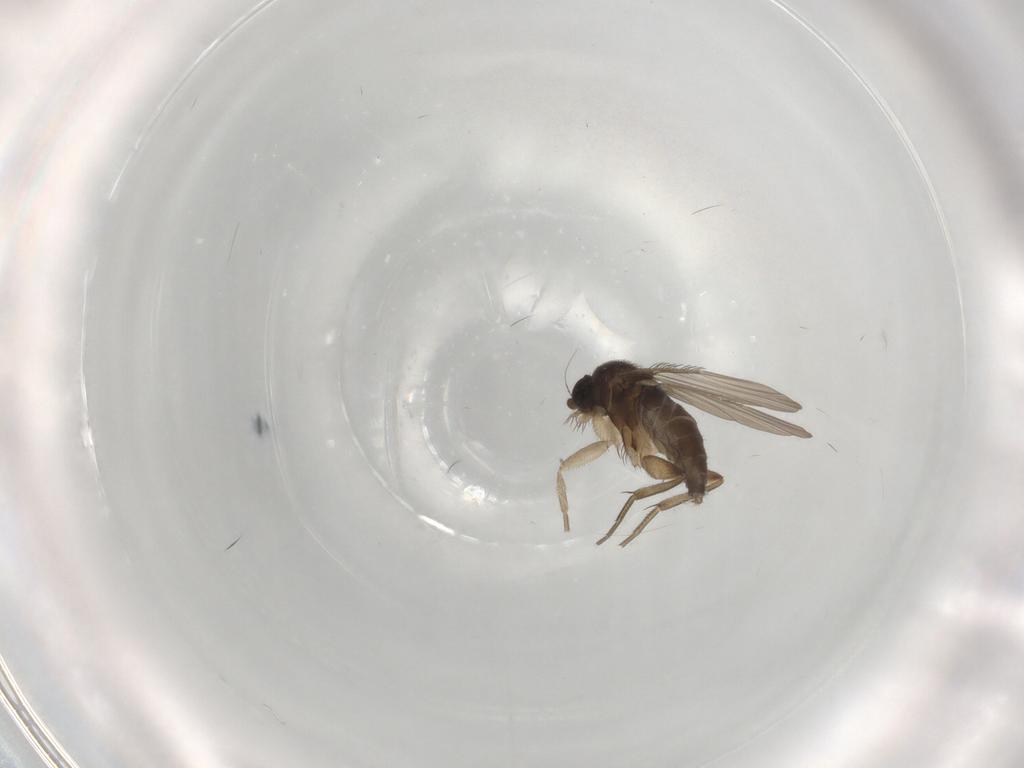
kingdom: Animalia
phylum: Arthropoda
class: Insecta
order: Diptera
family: Phoridae
